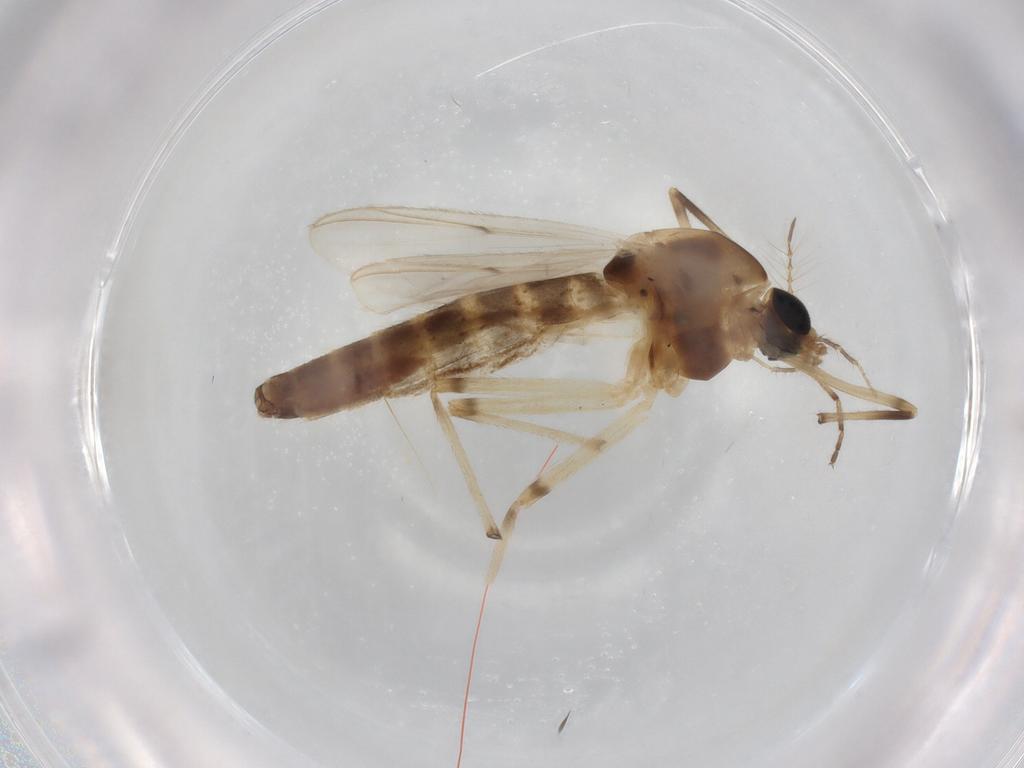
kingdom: Animalia
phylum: Arthropoda
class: Insecta
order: Diptera
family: Chironomidae
